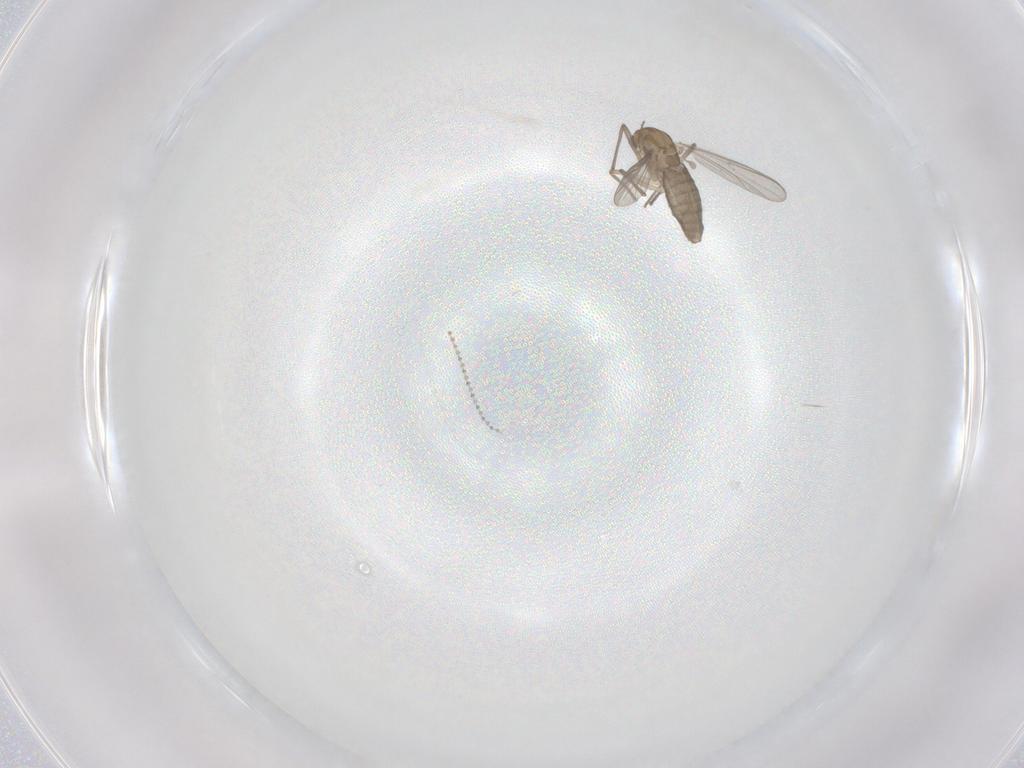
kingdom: Animalia
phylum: Arthropoda
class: Insecta
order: Diptera
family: Chironomidae
